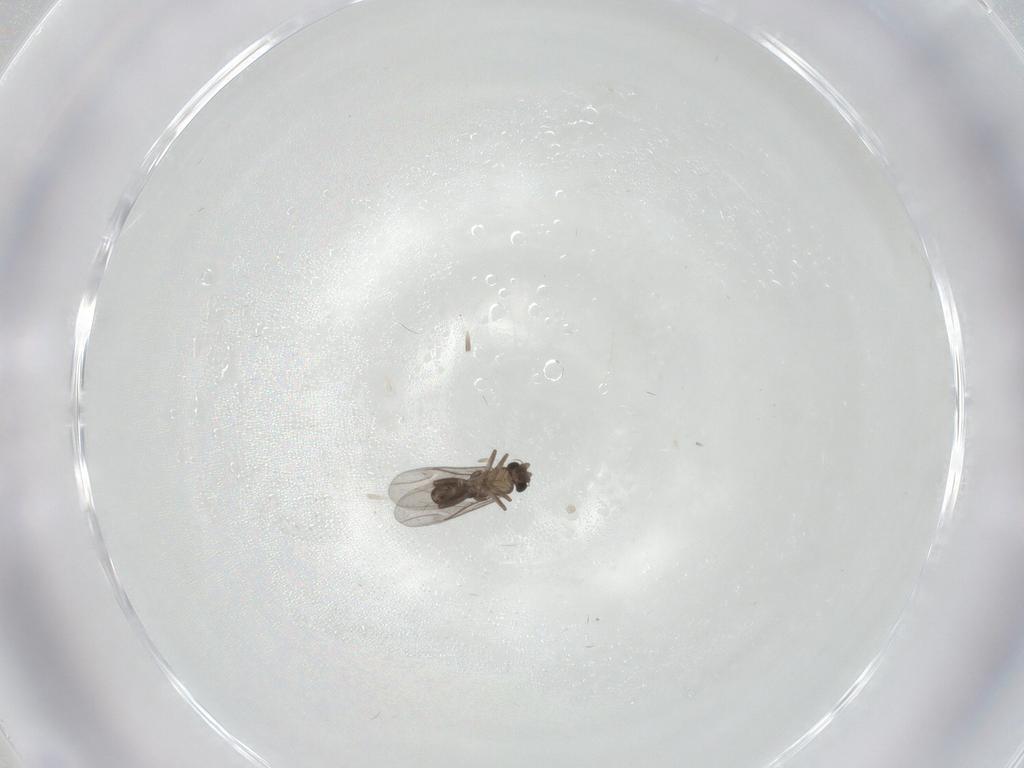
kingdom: Animalia
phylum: Arthropoda
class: Insecta
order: Diptera
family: Phoridae
